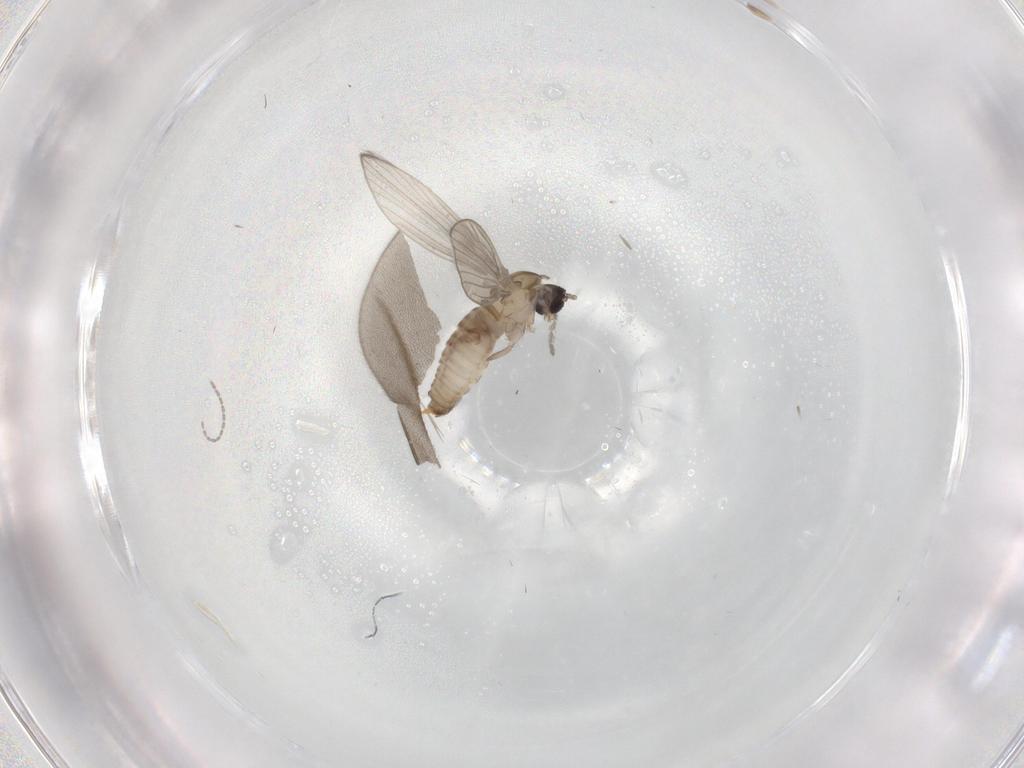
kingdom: Animalia
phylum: Arthropoda
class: Insecta
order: Diptera
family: Psychodidae
